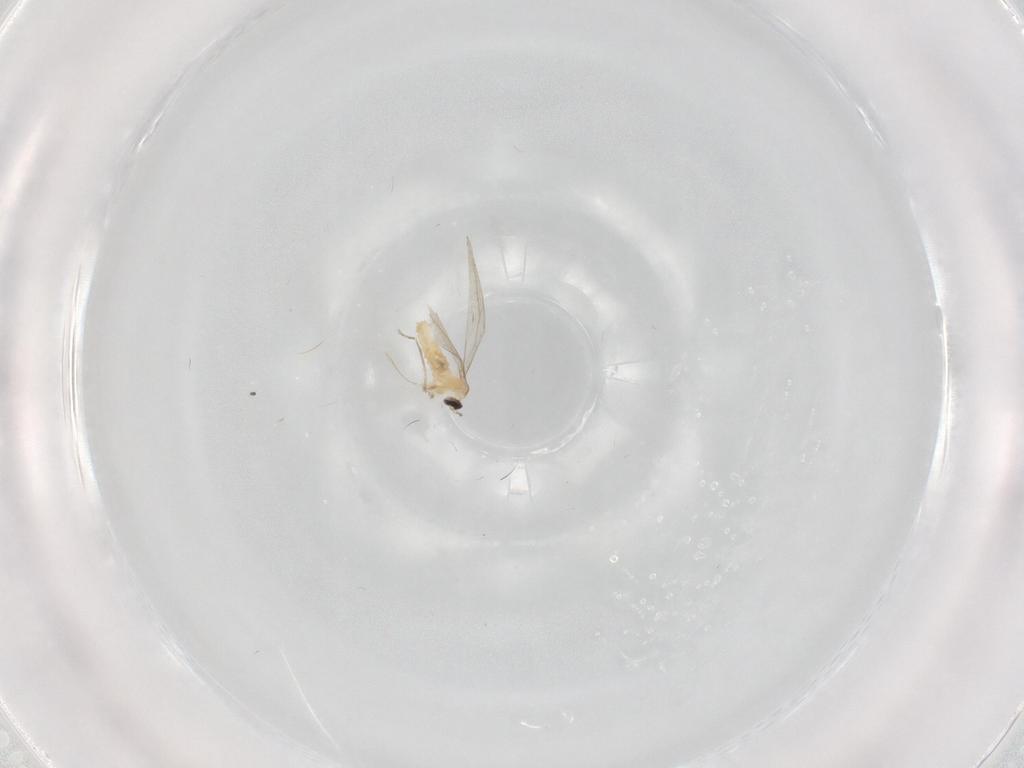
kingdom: Animalia
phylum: Arthropoda
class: Insecta
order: Diptera
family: Cecidomyiidae
